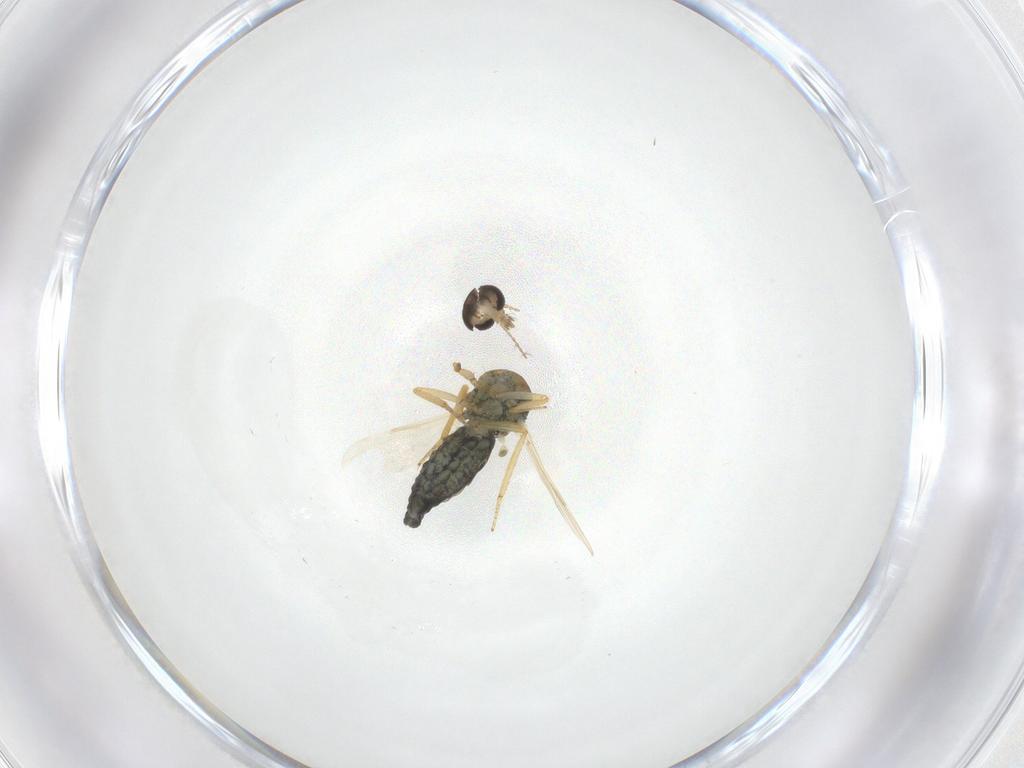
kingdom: Animalia
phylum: Arthropoda
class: Insecta
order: Diptera
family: Ceratopogonidae
